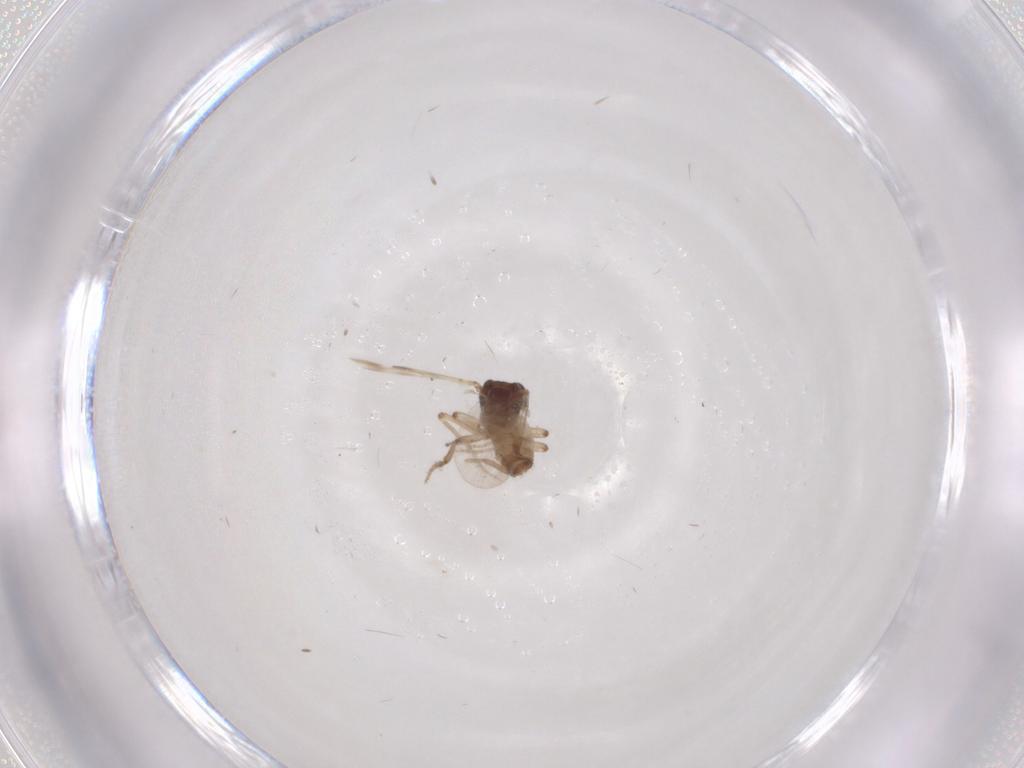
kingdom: Animalia
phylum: Arthropoda
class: Insecta
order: Diptera
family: Ceratopogonidae
